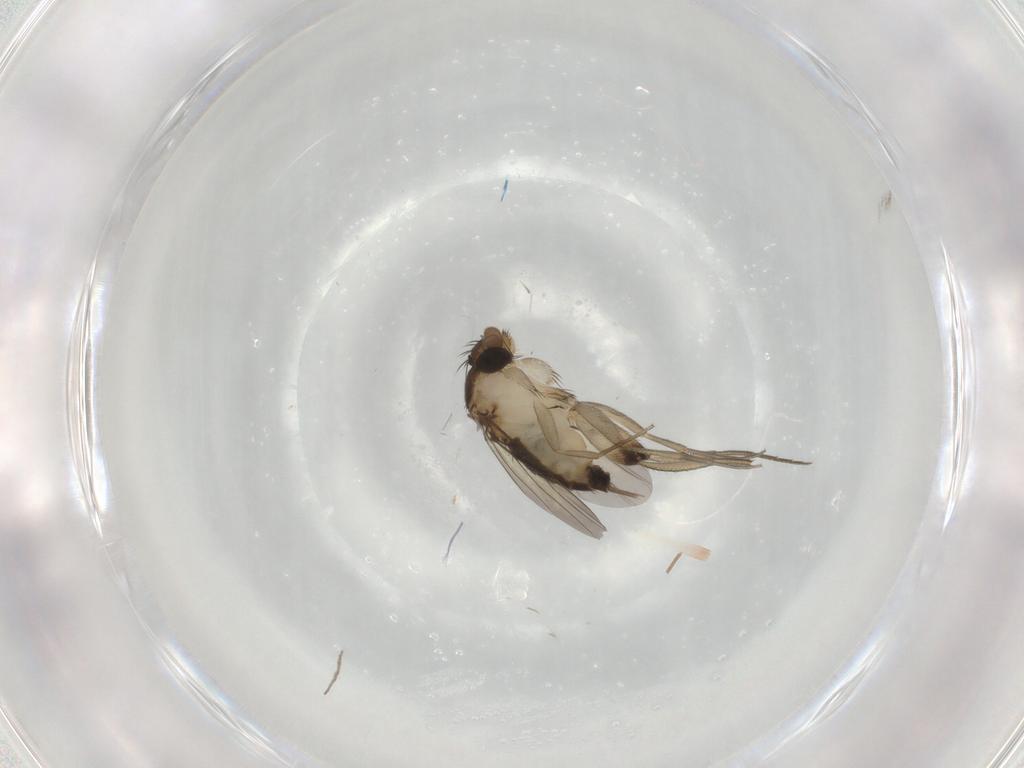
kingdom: Animalia
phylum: Arthropoda
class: Insecta
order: Diptera
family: Phoridae
